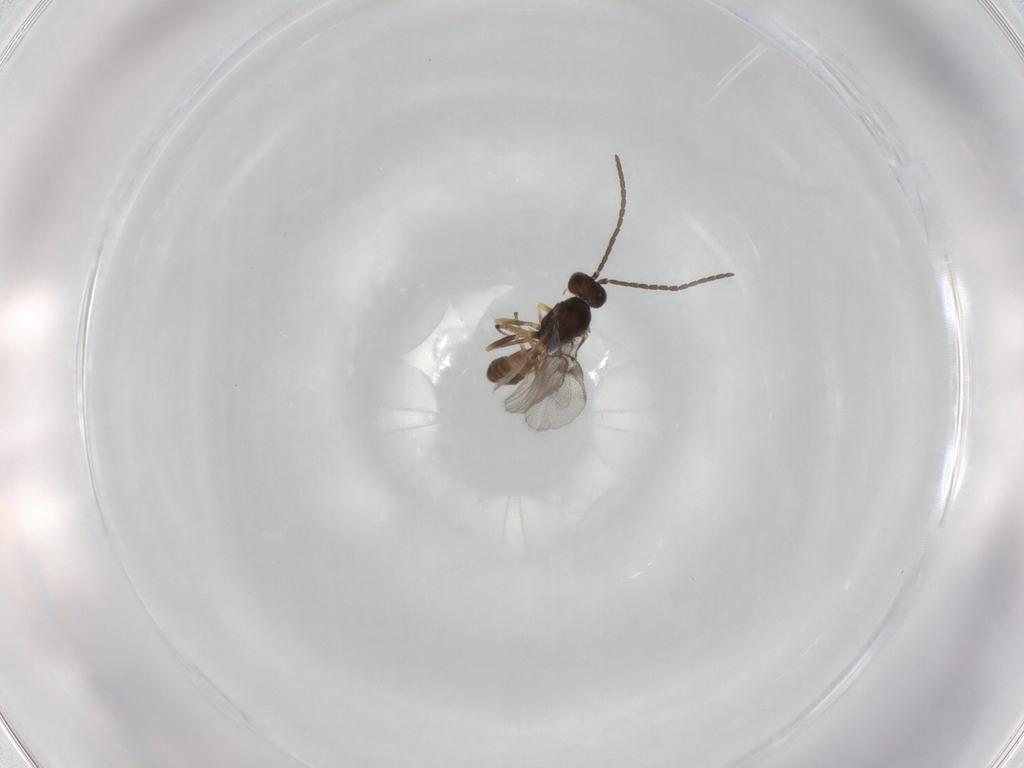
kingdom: Animalia
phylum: Arthropoda
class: Insecta
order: Hymenoptera
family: Braconidae
